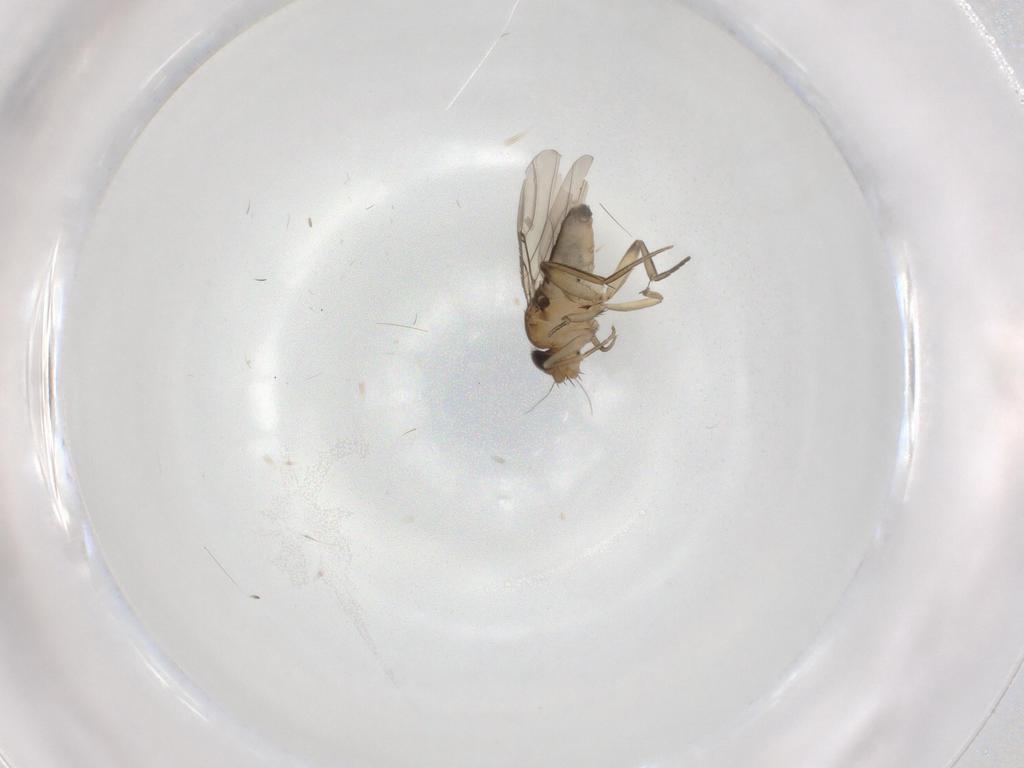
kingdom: Animalia
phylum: Arthropoda
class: Insecta
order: Diptera
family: Phoridae
